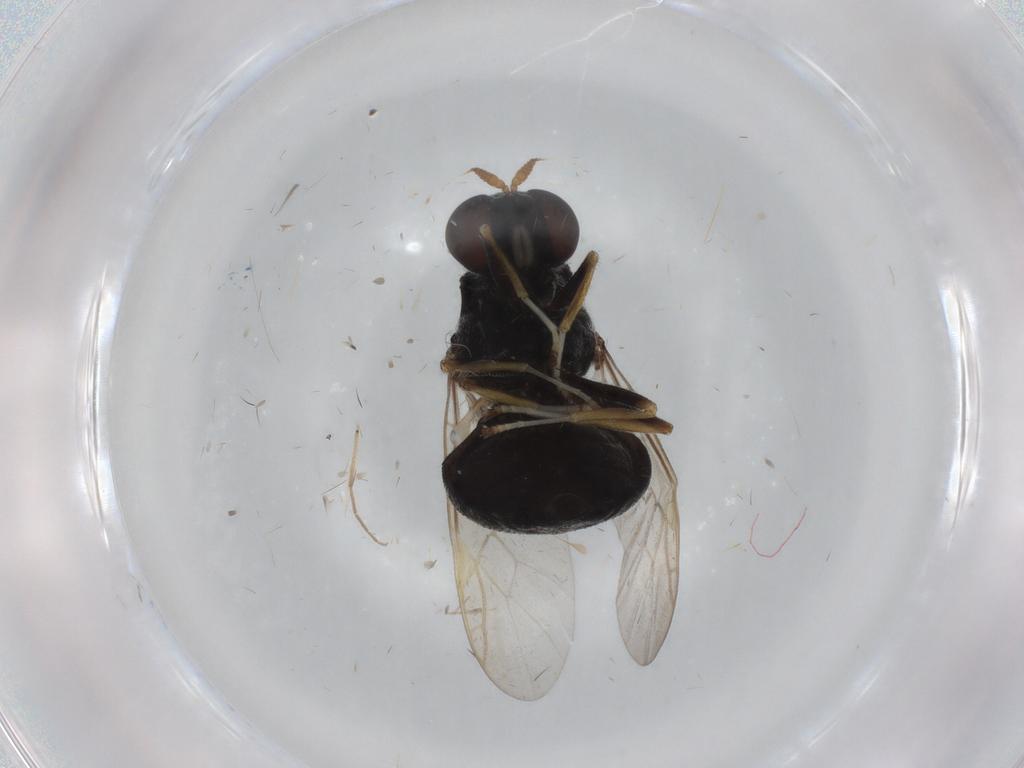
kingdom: Animalia
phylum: Arthropoda
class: Insecta
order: Diptera
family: Stratiomyidae
